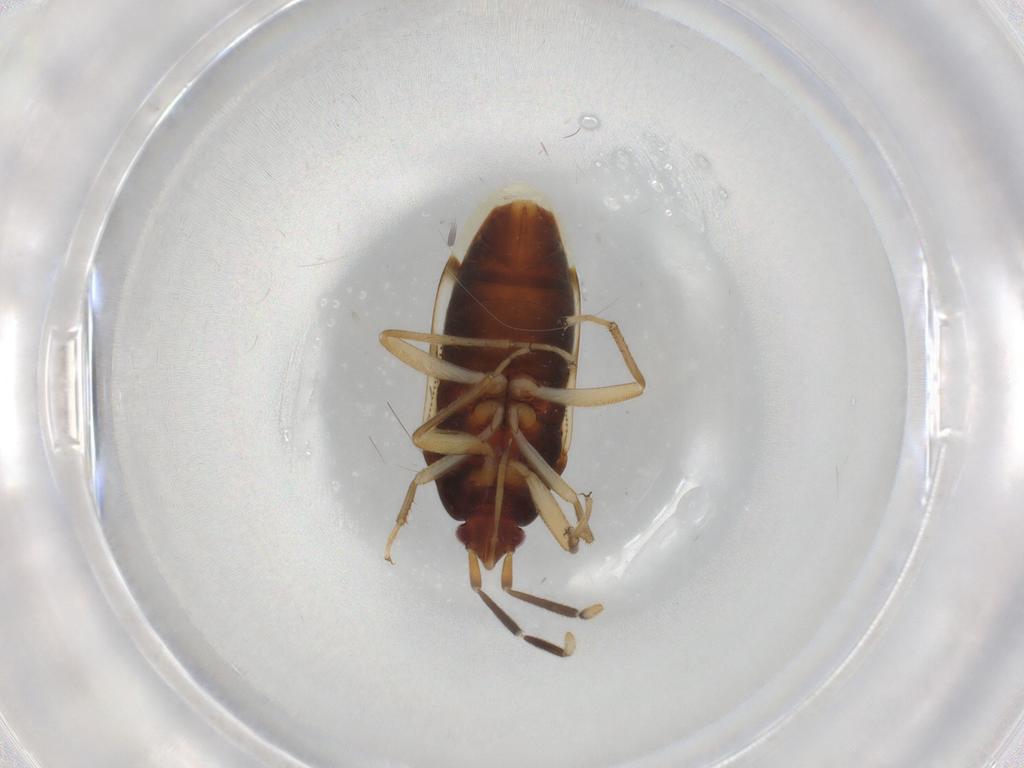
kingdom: Animalia
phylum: Arthropoda
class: Insecta
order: Hemiptera
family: Rhyparochromidae
